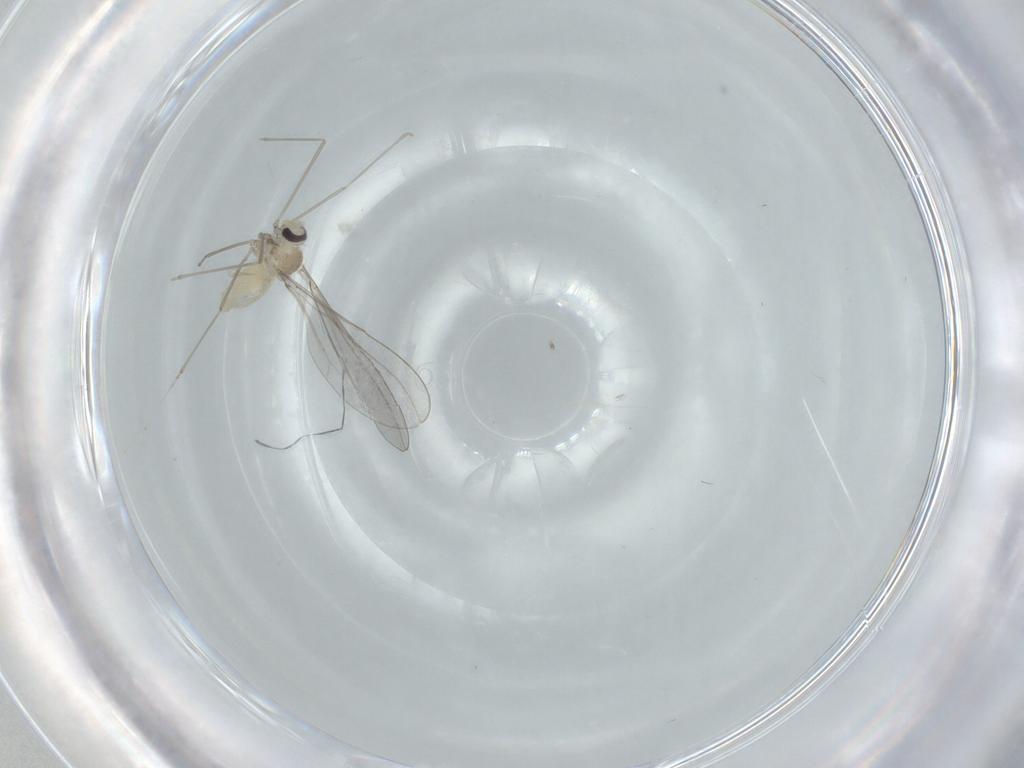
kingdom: Animalia
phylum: Arthropoda
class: Insecta
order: Diptera
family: Cecidomyiidae
